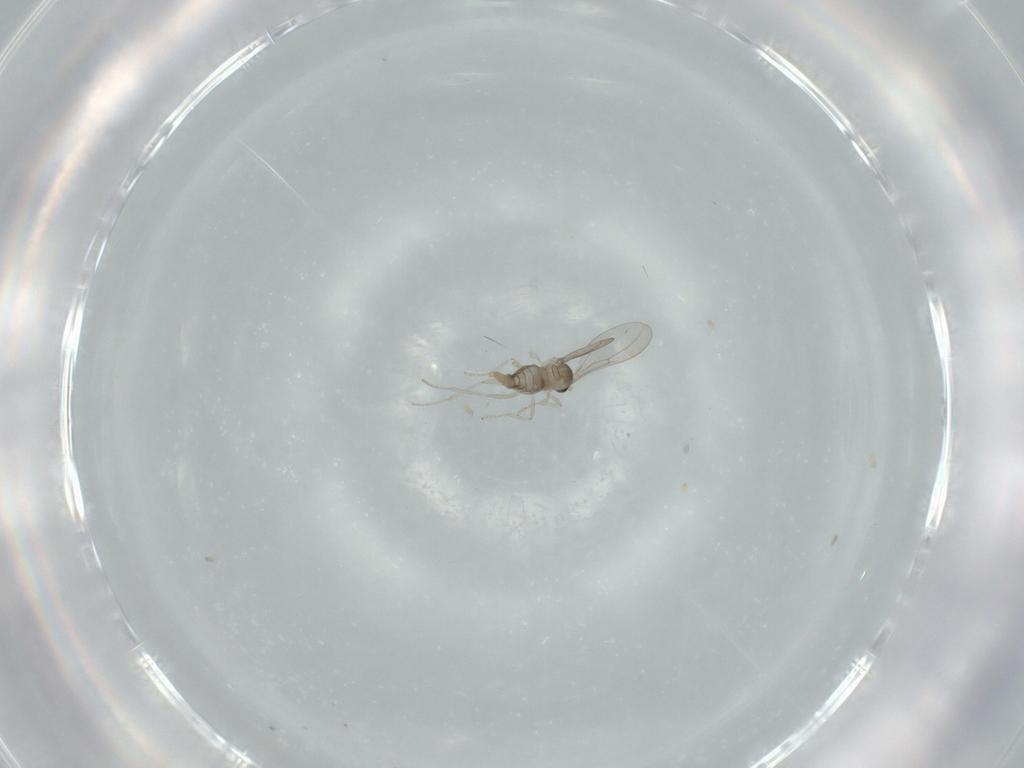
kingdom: Animalia
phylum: Arthropoda
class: Insecta
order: Diptera
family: Cecidomyiidae
